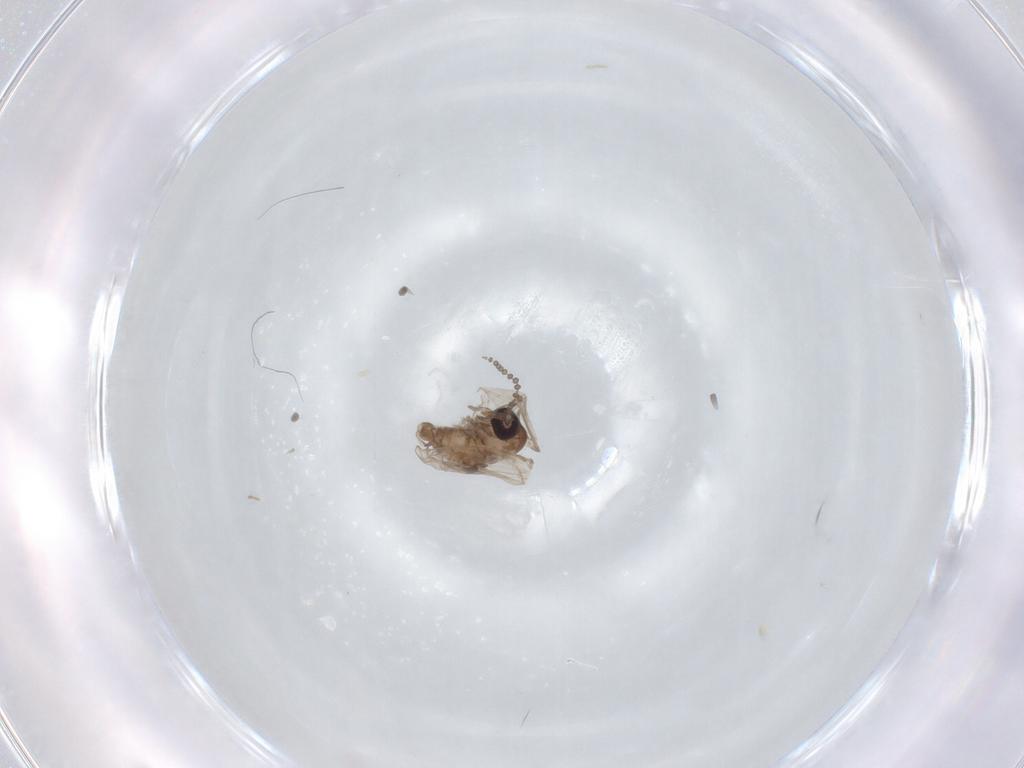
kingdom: Animalia
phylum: Arthropoda
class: Insecta
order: Diptera
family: Psychodidae
